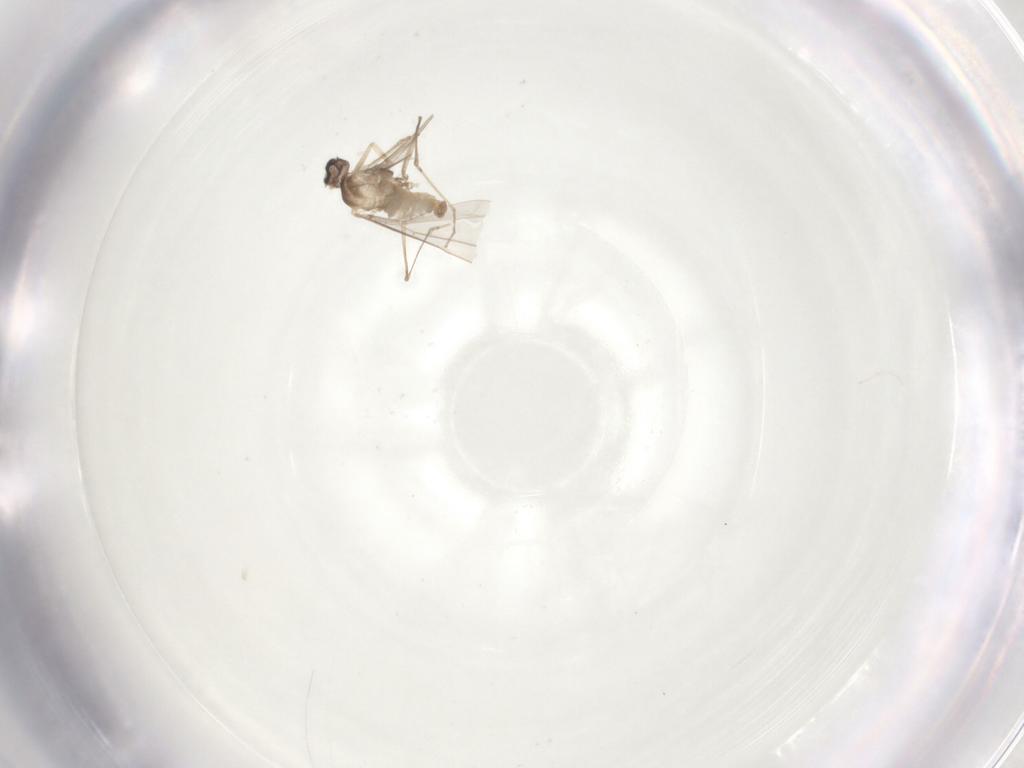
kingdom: Animalia
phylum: Arthropoda
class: Insecta
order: Diptera
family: Cecidomyiidae
